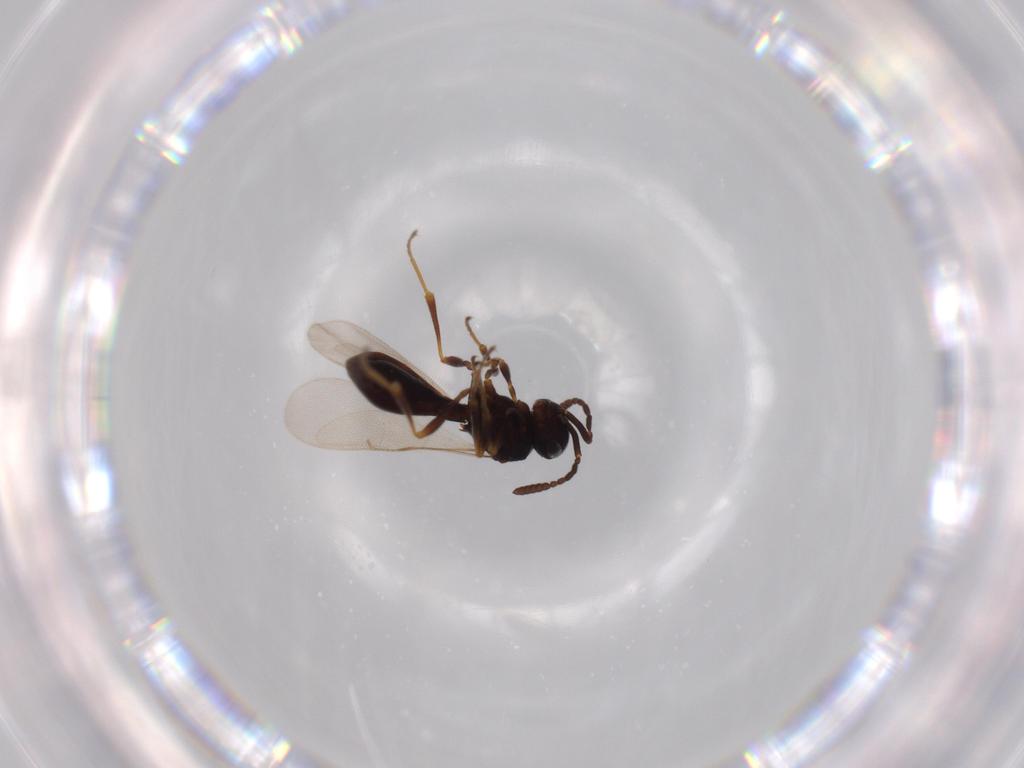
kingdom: Animalia
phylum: Arthropoda
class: Insecta
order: Hymenoptera
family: Scelionidae
